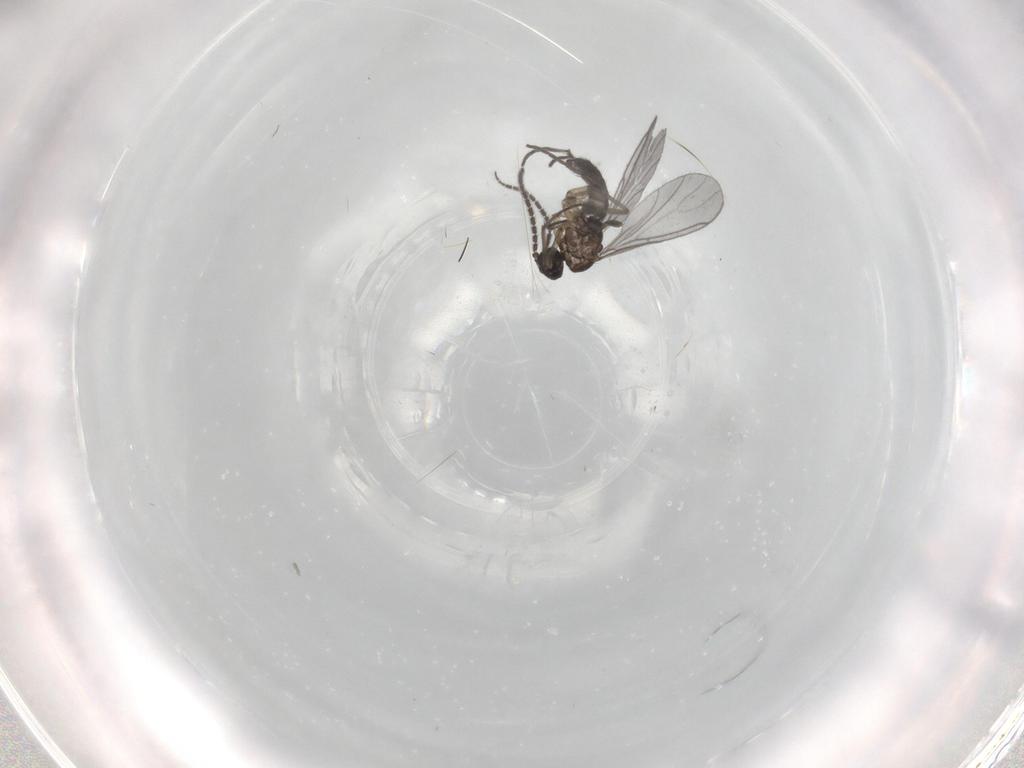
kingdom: Animalia
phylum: Arthropoda
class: Insecta
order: Diptera
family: Sciaridae
